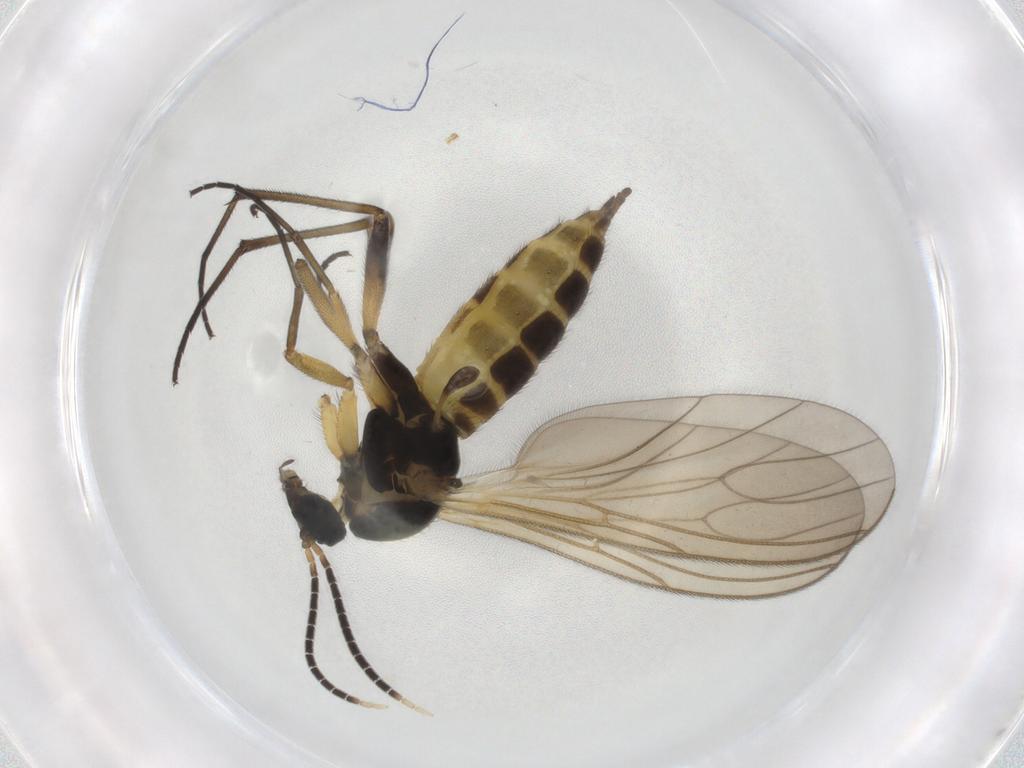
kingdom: Animalia
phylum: Arthropoda
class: Insecta
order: Diptera
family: Sciaridae
